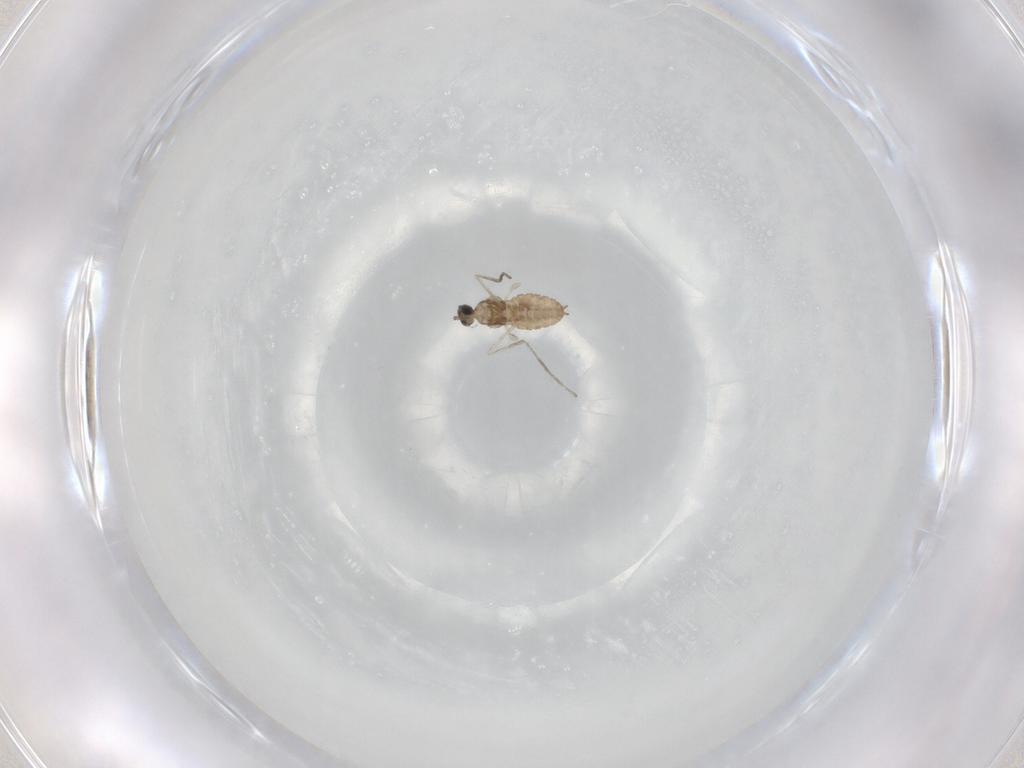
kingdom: Animalia
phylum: Arthropoda
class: Insecta
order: Diptera
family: Cecidomyiidae
